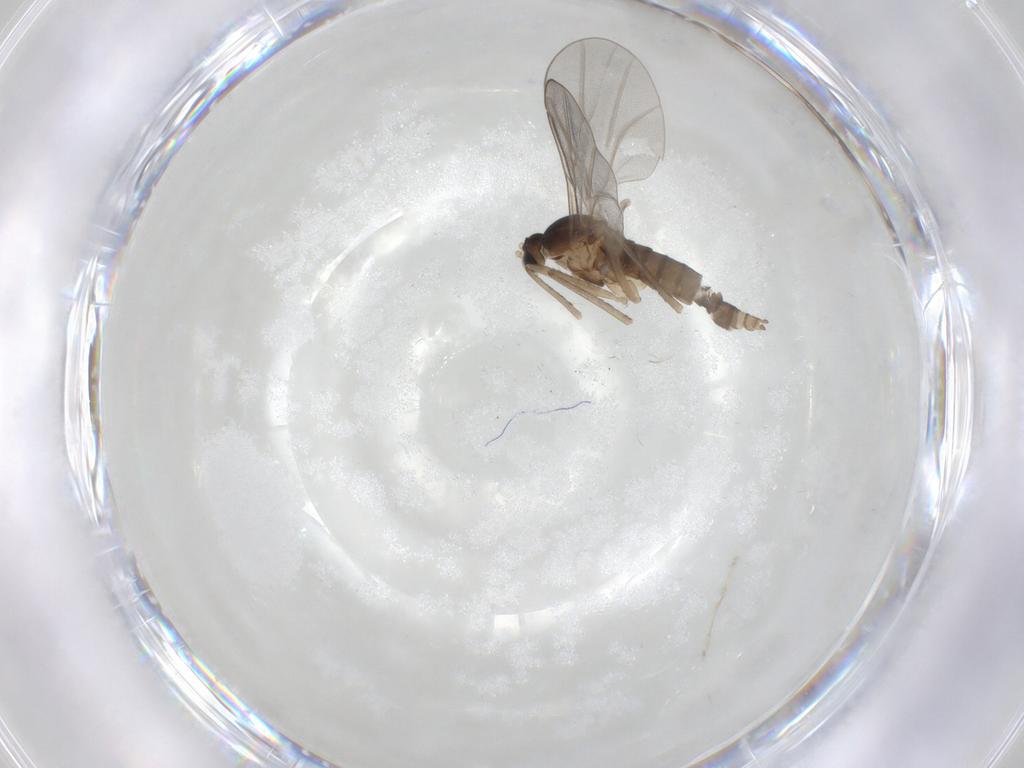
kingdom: Animalia
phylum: Arthropoda
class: Insecta
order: Diptera
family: Cecidomyiidae
